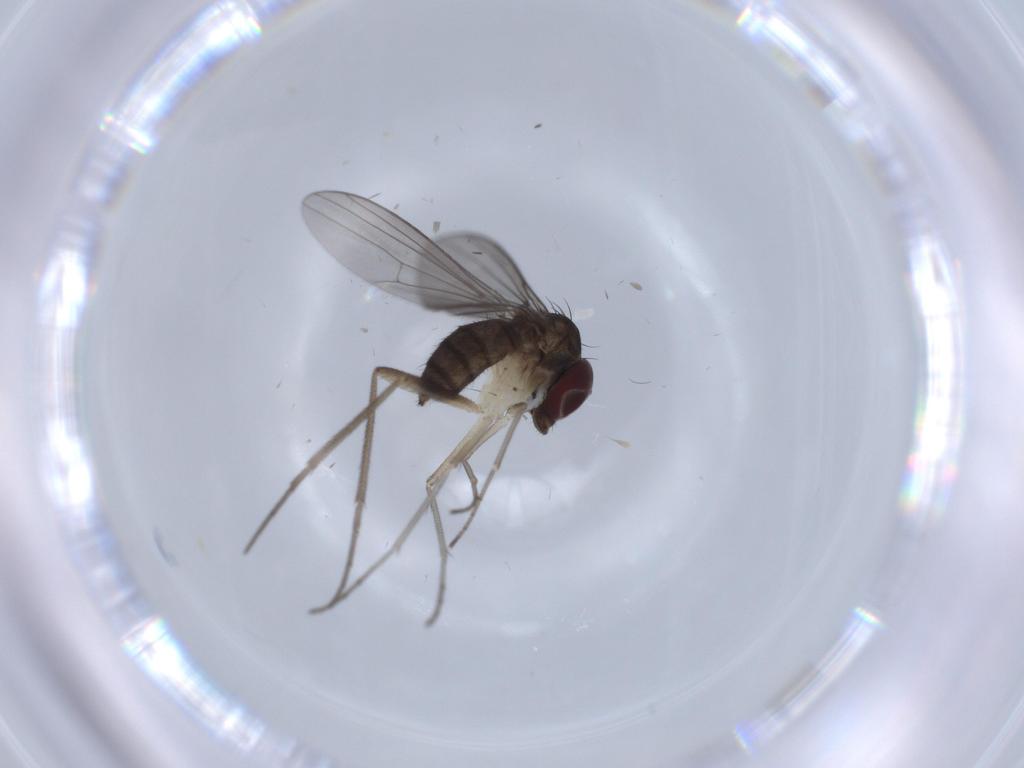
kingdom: Animalia
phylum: Arthropoda
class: Insecta
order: Diptera
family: Dolichopodidae
